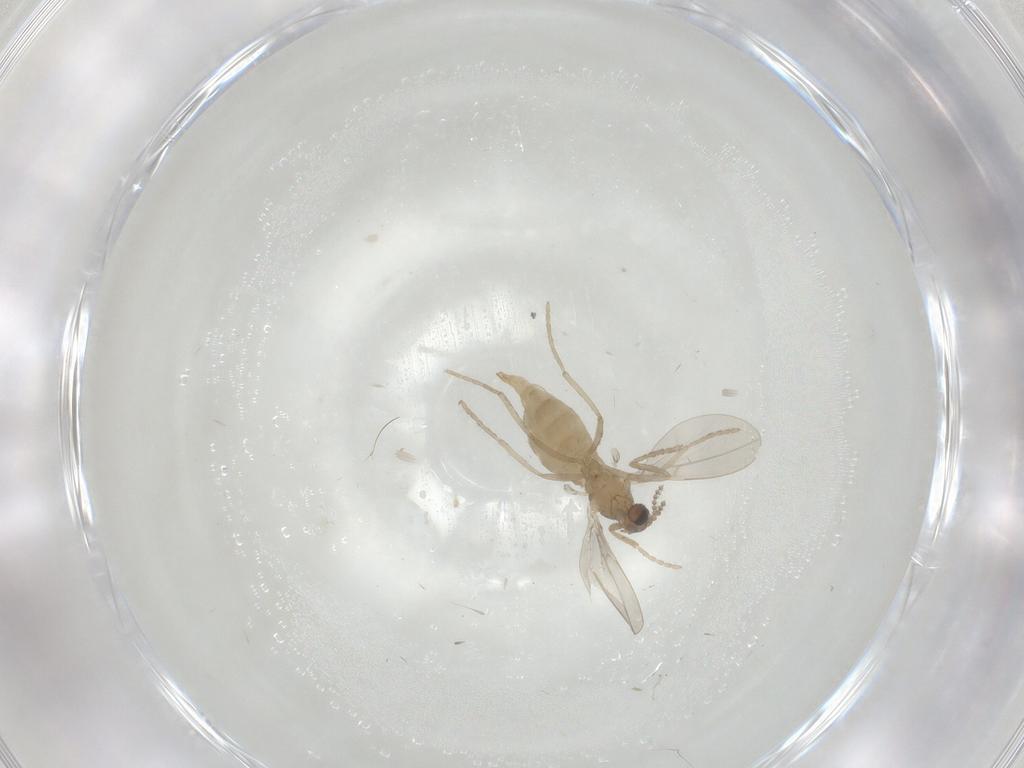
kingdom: Animalia
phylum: Arthropoda
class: Insecta
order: Diptera
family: Cecidomyiidae
